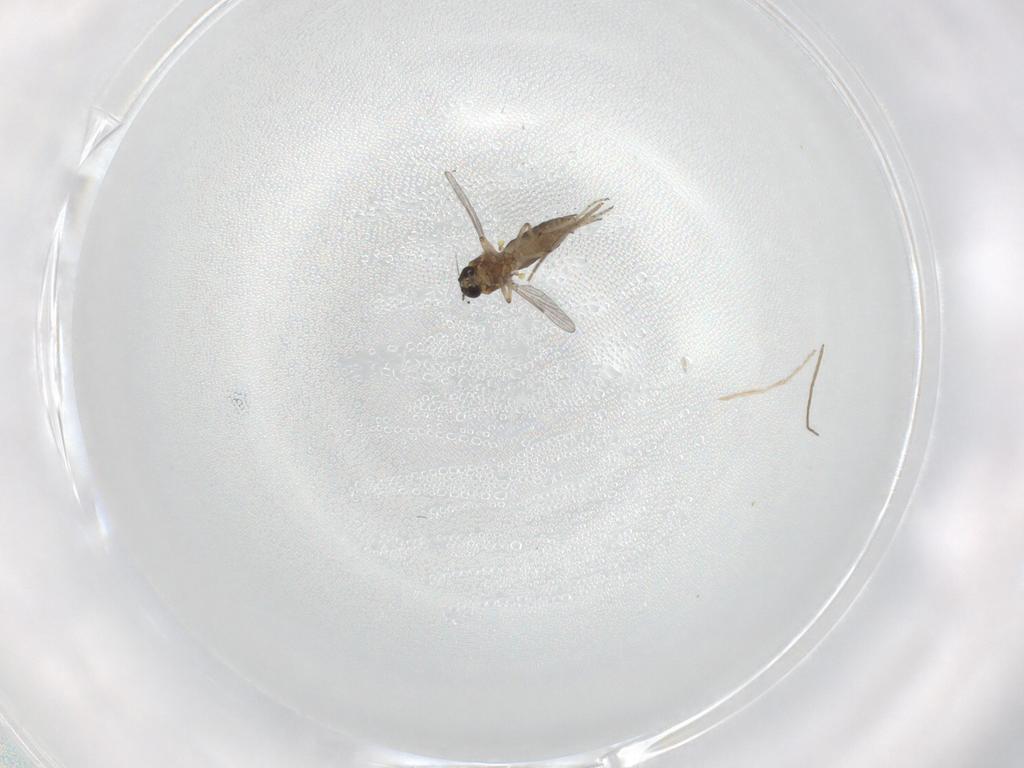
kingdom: Animalia
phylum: Arthropoda
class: Insecta
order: Diptera
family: Ceratopogonidae
